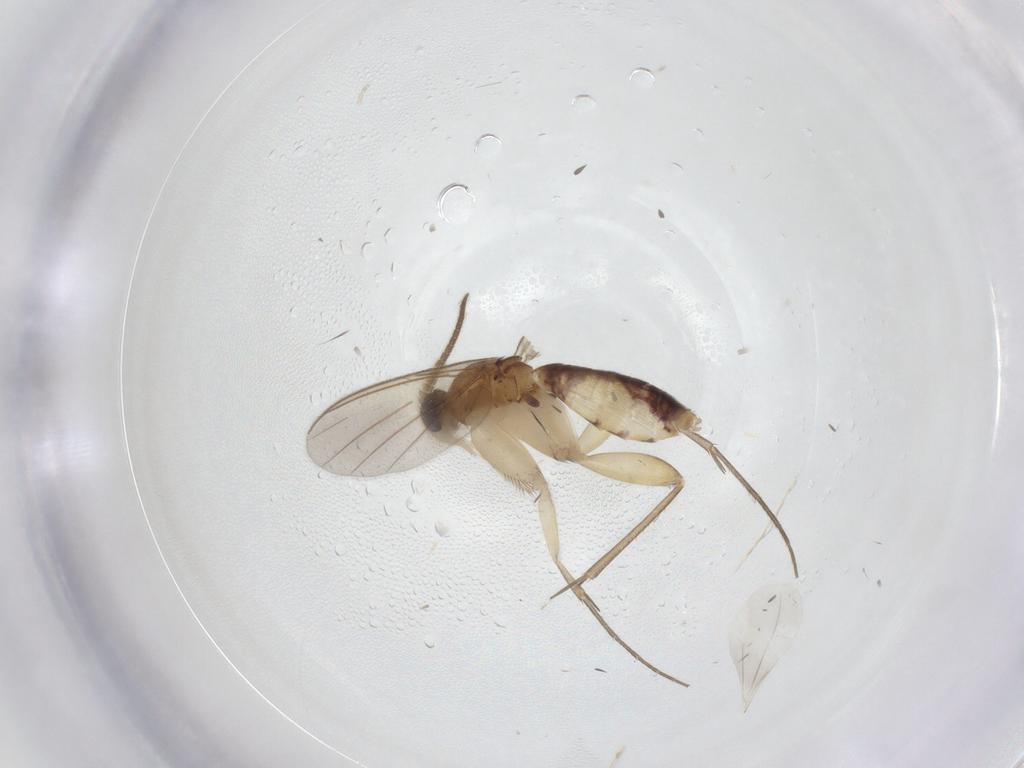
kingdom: Animalia
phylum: Arthropoda
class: Insecta
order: Diptera
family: Mycetophilidae
